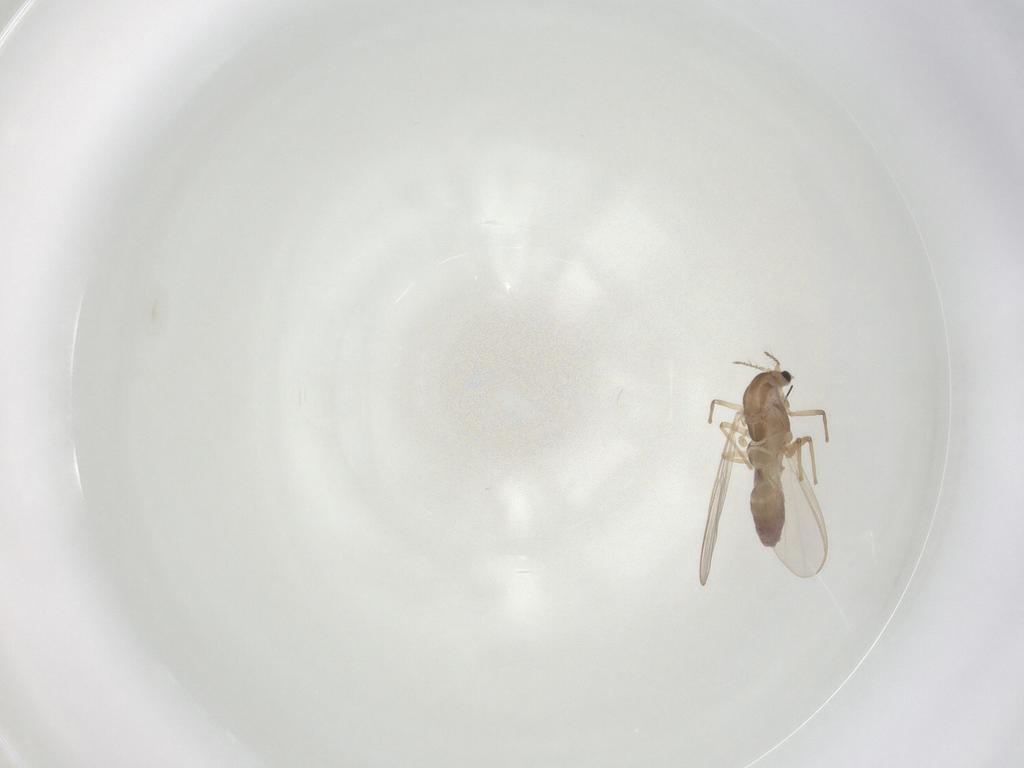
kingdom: Animalia
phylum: Arthropoda
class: Insecta
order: Diptera
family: Chironomidae
